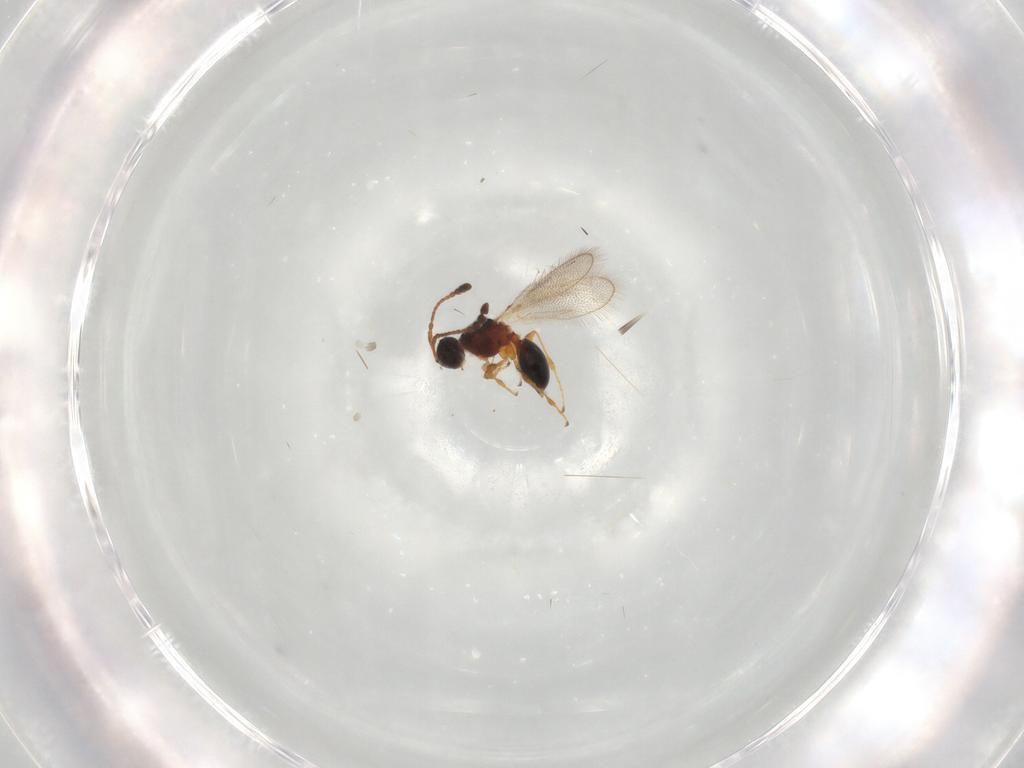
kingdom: Animalia
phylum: Arthropoda
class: Insecta
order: Hymenoptera
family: Diapriidae
